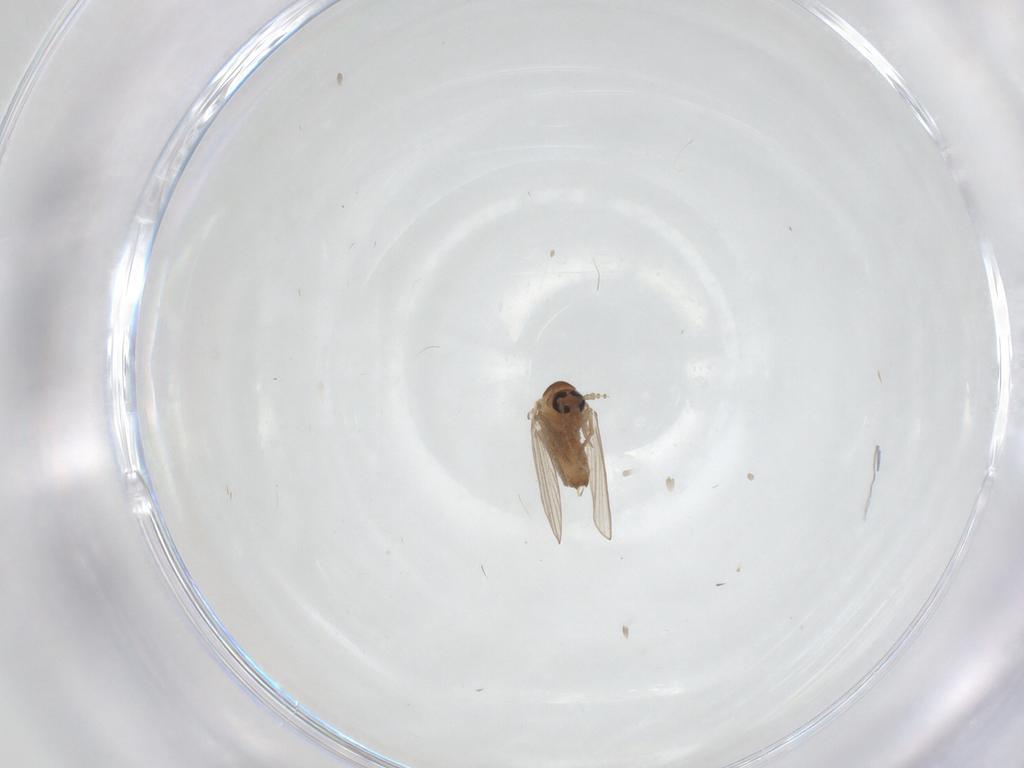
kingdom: Animalia
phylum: Arthropoda
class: Insecta
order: Diptera
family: Psychodidae
